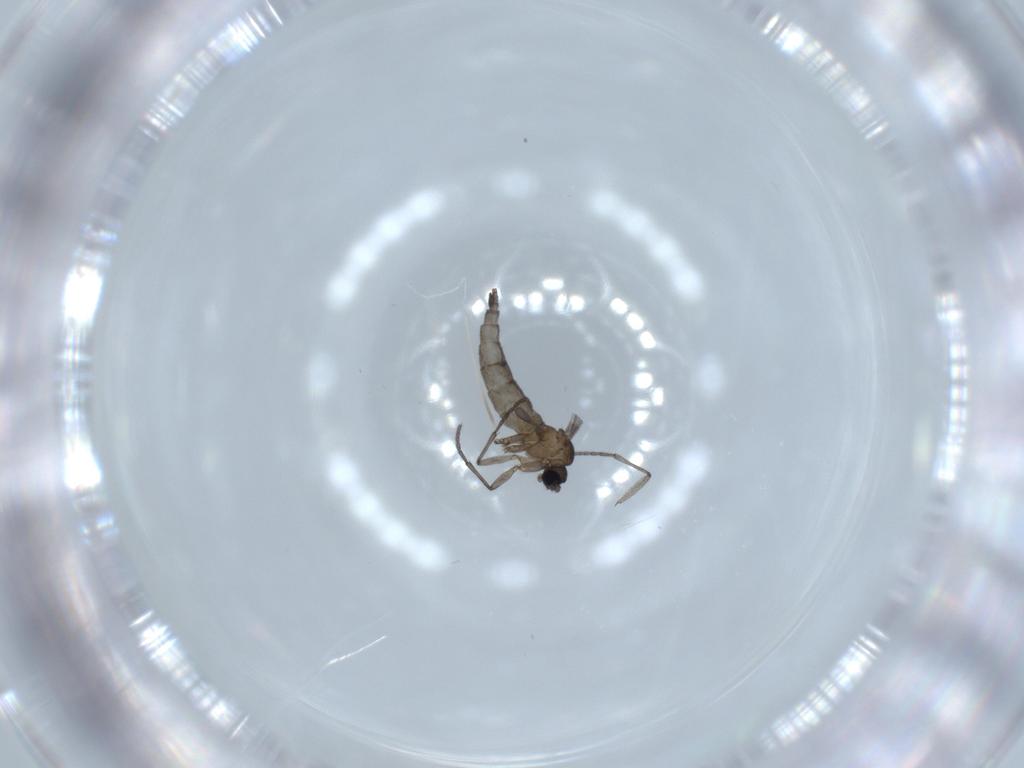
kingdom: Animalia
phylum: Arthropoda
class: Insecta
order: Diptera
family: Sciaridae
